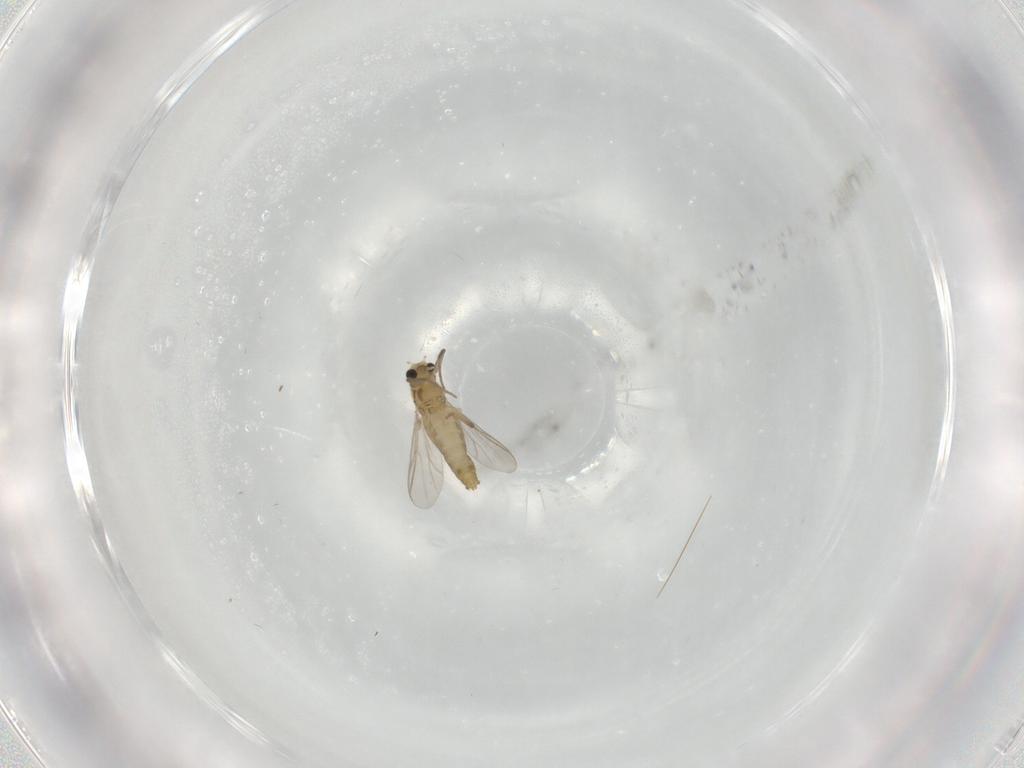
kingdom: Animalia
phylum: Arthropoda
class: Insecta
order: Diptera
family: Chironomidae
